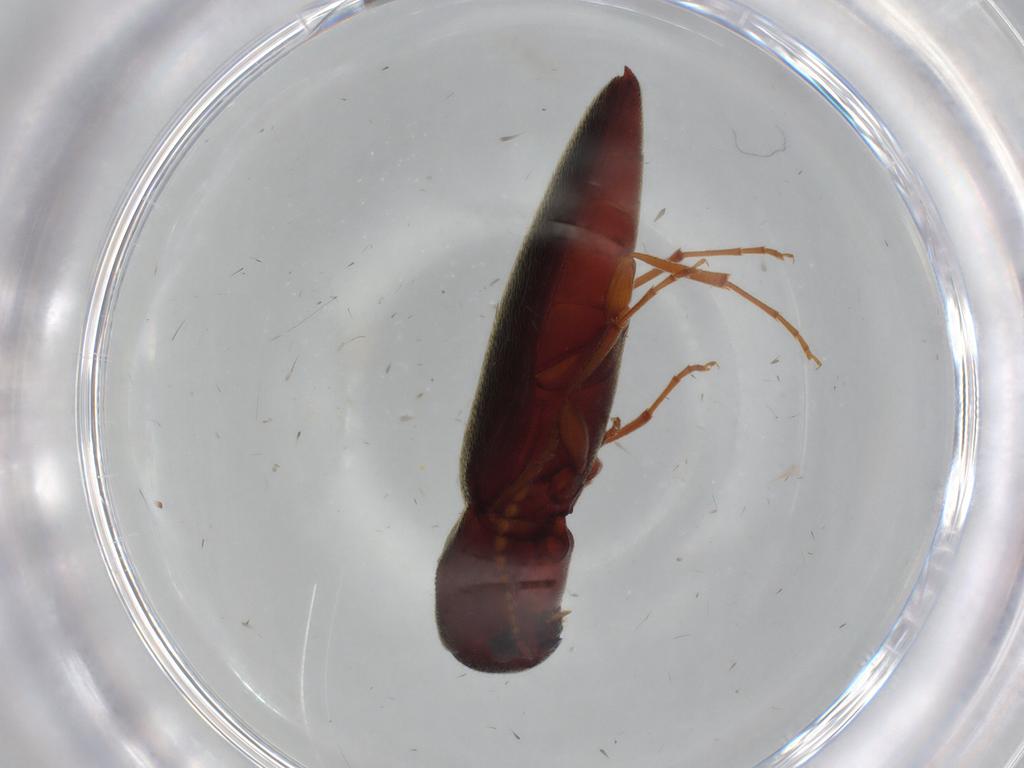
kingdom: Animalia
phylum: Arthropoda
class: Insecta
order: Coleoptera
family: Eucnemidae
